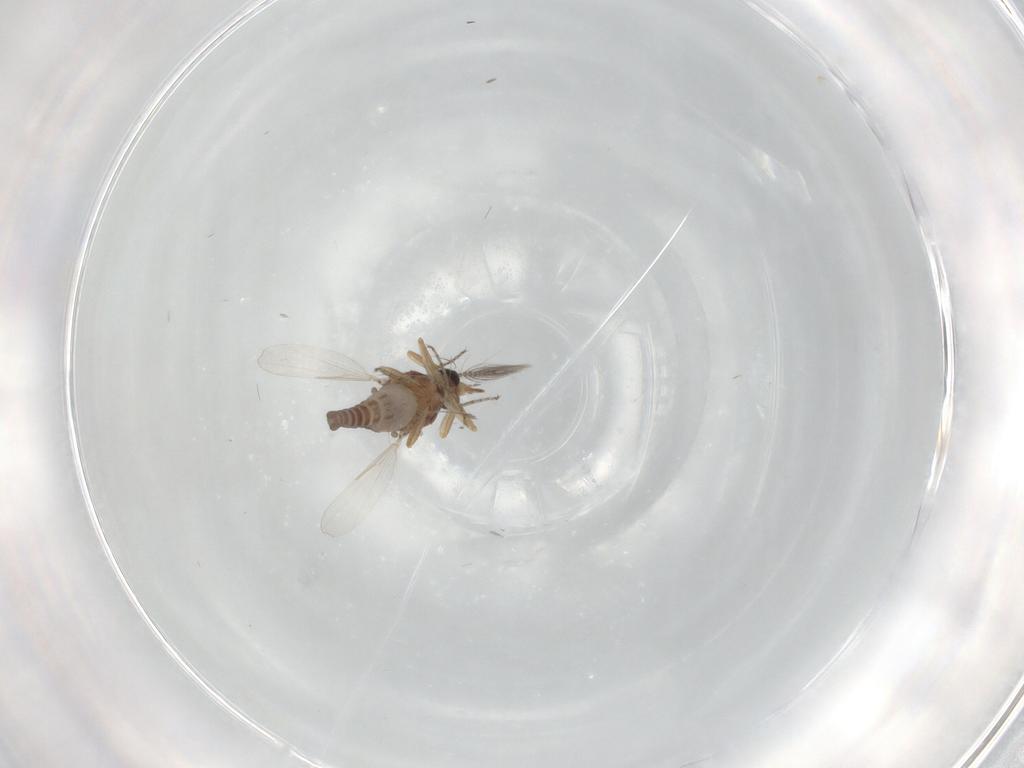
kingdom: Animalia
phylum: Arthropoda
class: Insecta
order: Diptera
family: Ceratopogonidae
